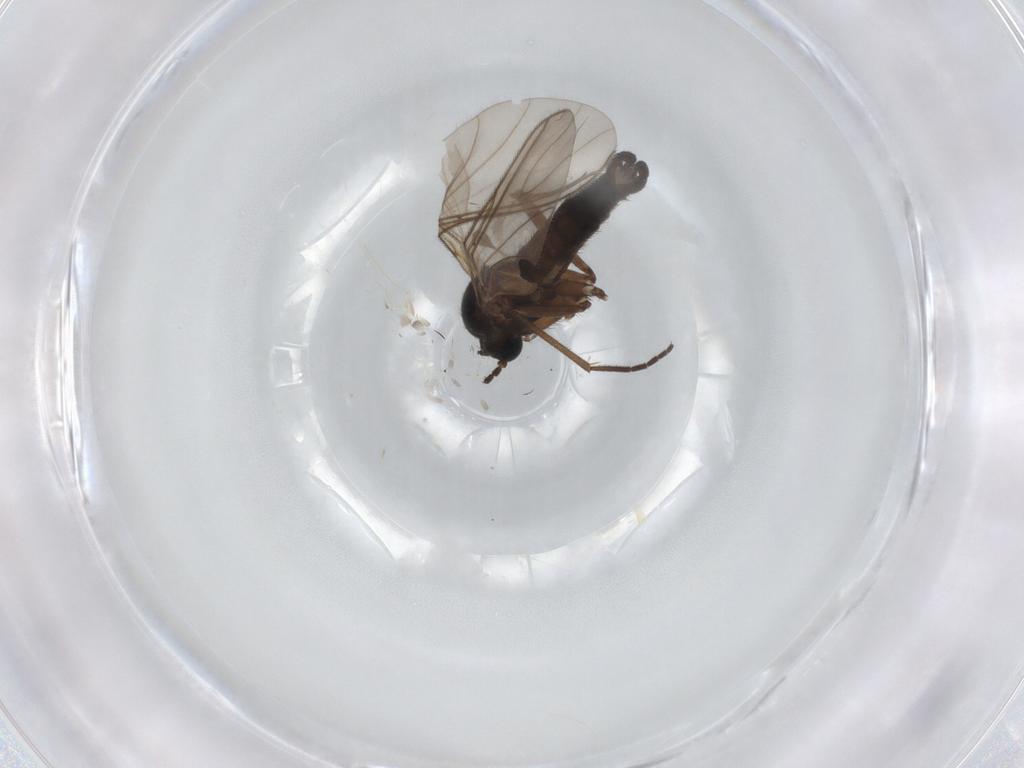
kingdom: Animalia
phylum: Arthropoda
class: Insecta
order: Diptera
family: Sciaridae
